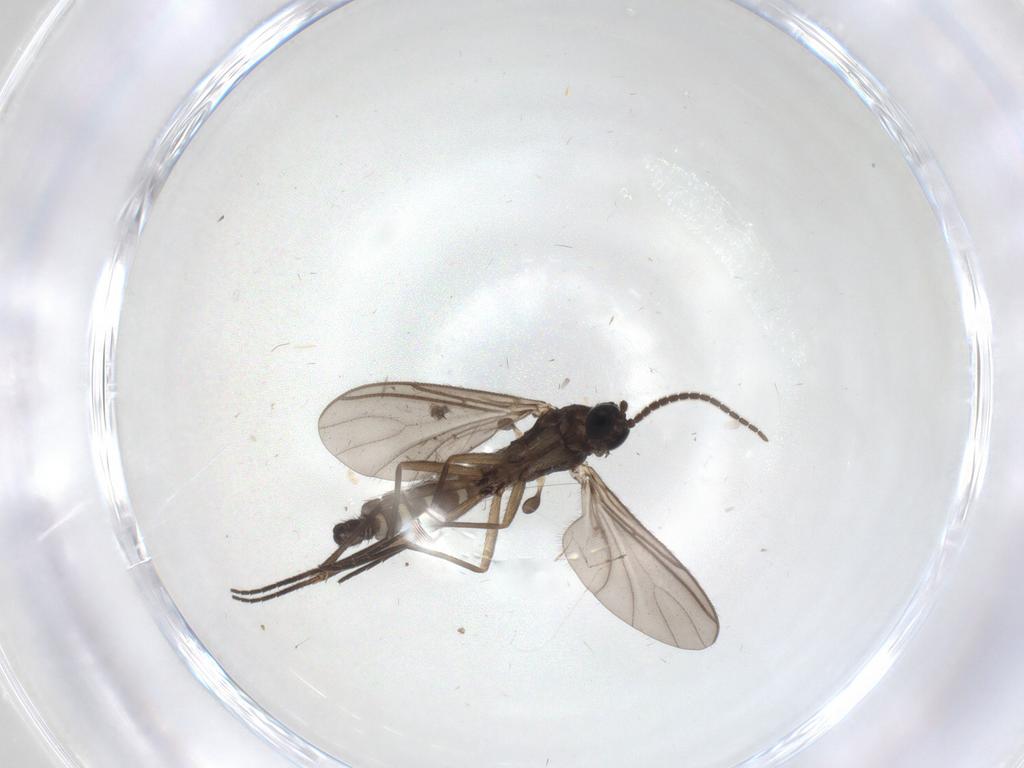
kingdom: Animalia
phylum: Arthropoda
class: Insecta
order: Diptera
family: Sciaridae
